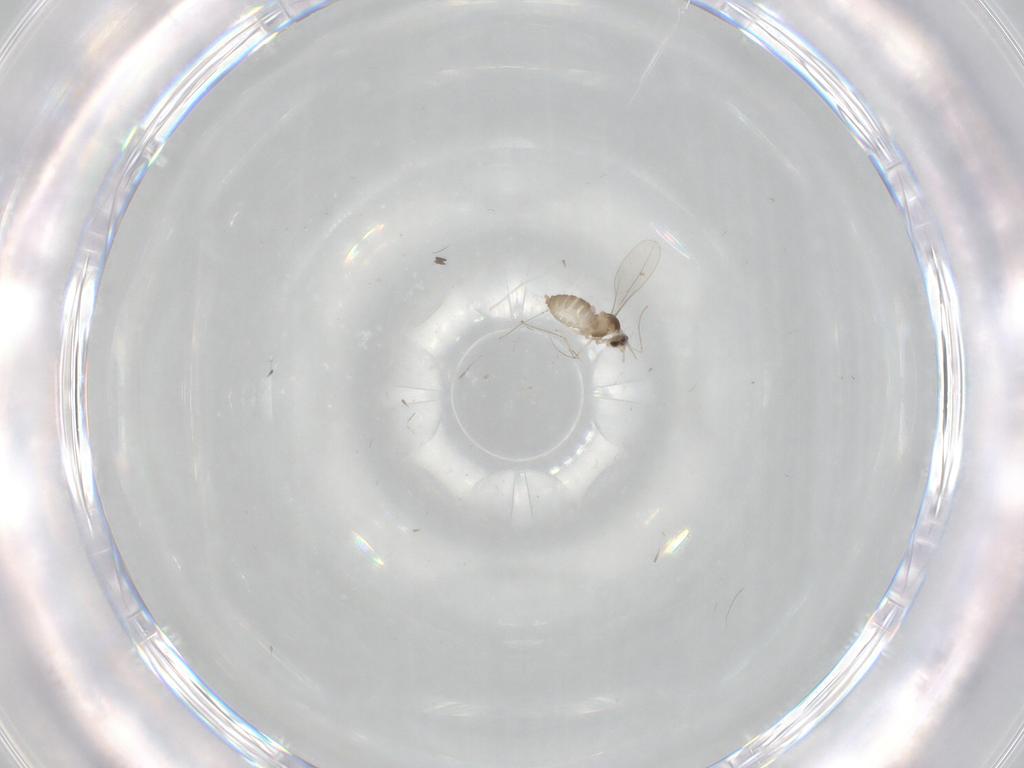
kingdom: Animalia
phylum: Arthropoda
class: Insecta
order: Diptera
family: Cecidomyiidae
